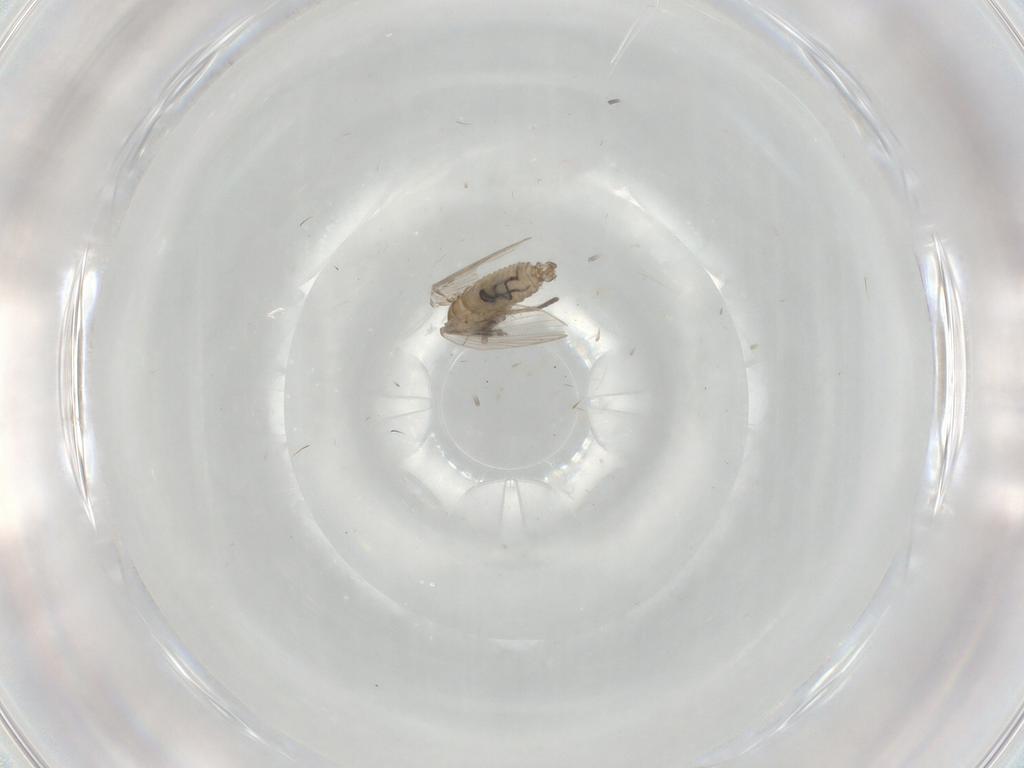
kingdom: Animalia
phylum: Arthropoda
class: Insecta
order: Diptera
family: Psychodidae
